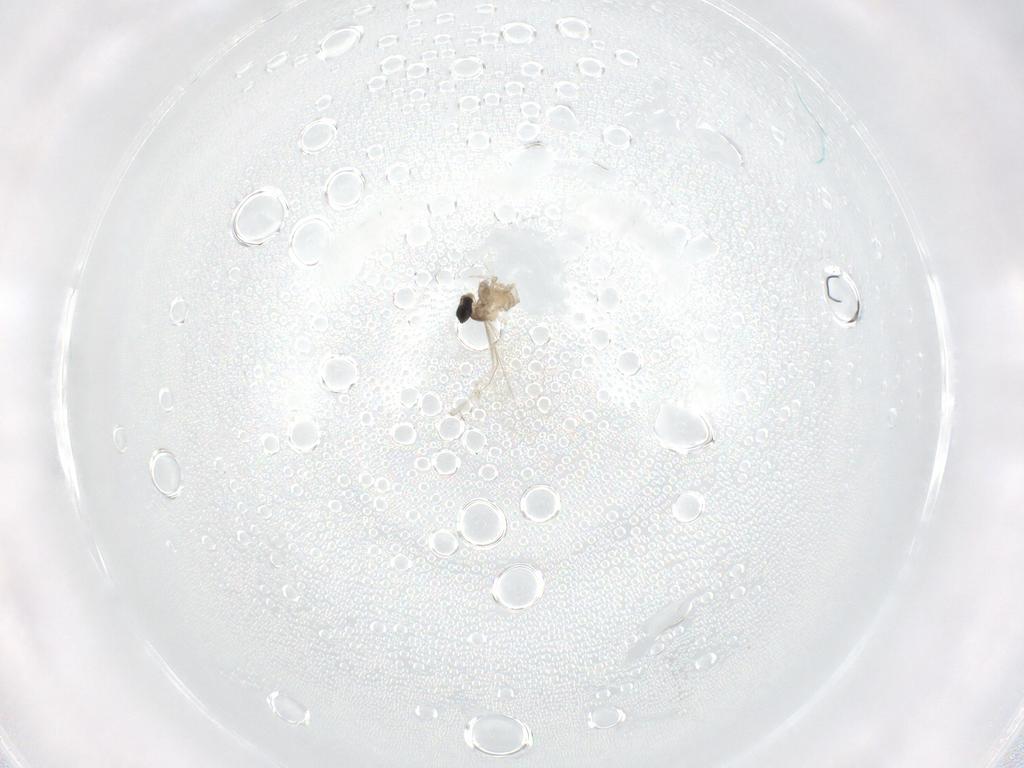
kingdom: Animalia
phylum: Arthropoda
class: Insecta
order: Diptera
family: Cecidomyiidae
